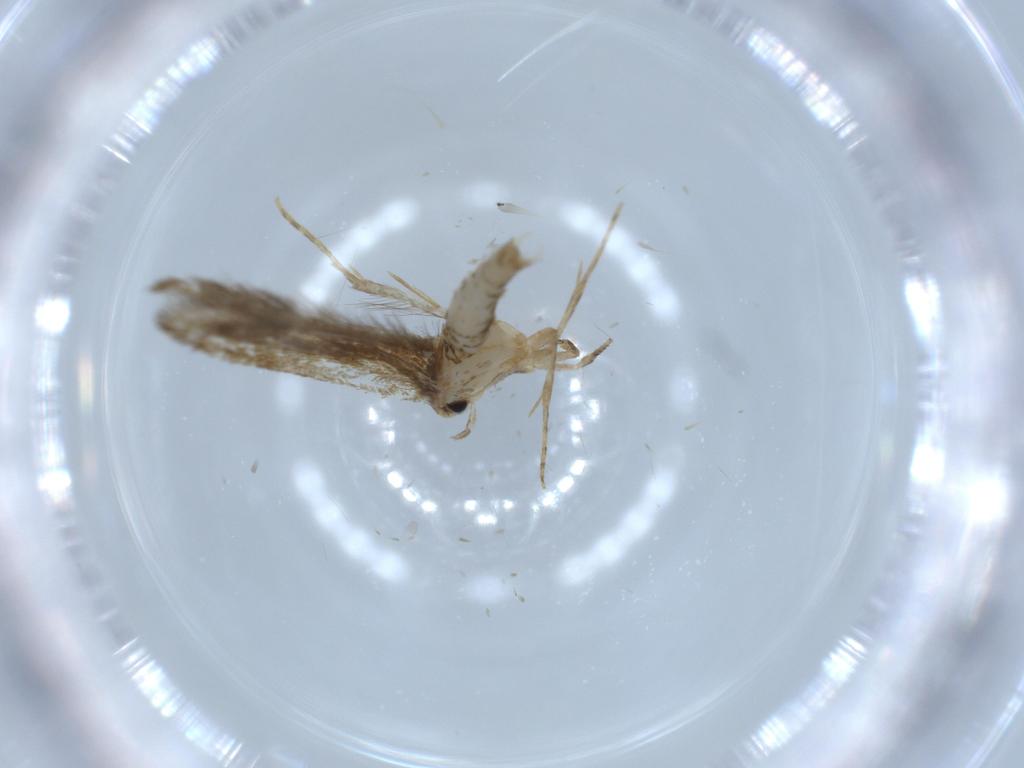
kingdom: Animalia
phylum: Arthropoda
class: Insecta
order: Lepidoptera
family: Tineidae
